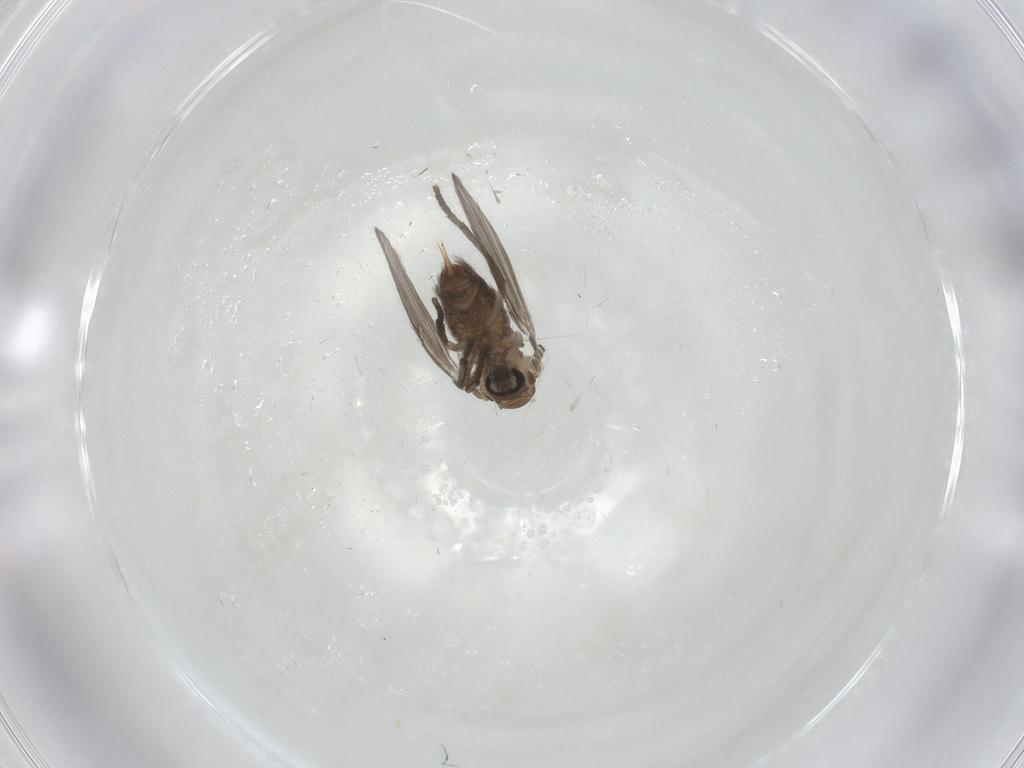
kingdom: Animalia
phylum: Arthropoda
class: Insecta
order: Diptera
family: Psychodidae
